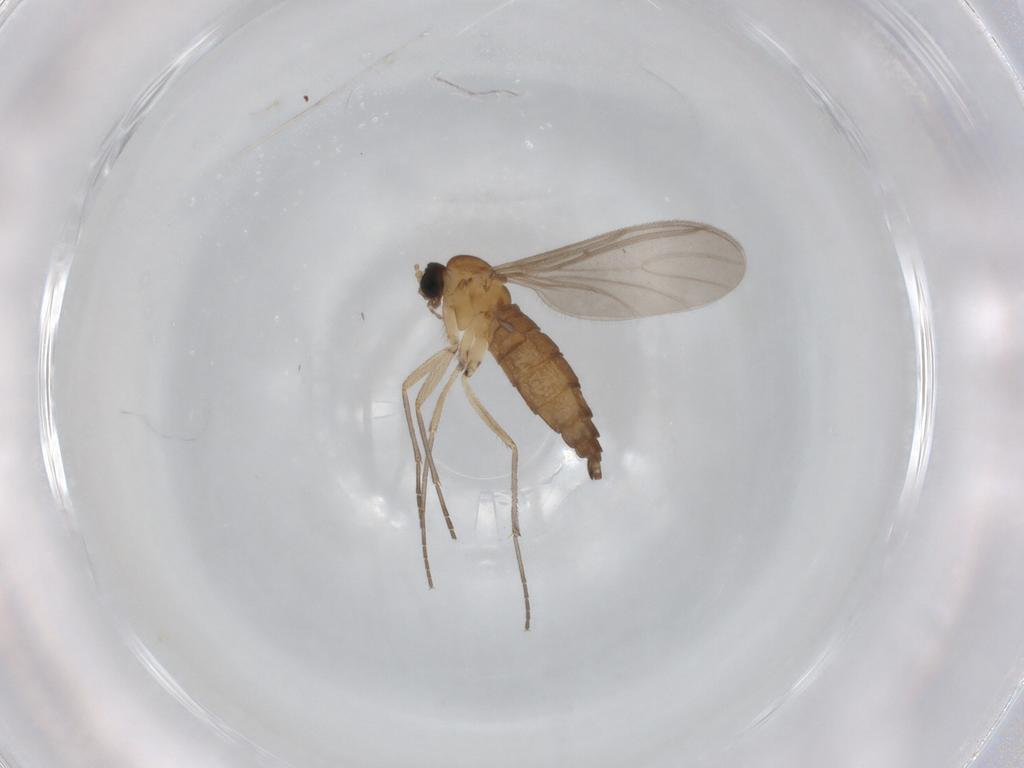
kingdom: Animalia
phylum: Arthropoda
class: Insecta
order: Diptera
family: Sciaridae
